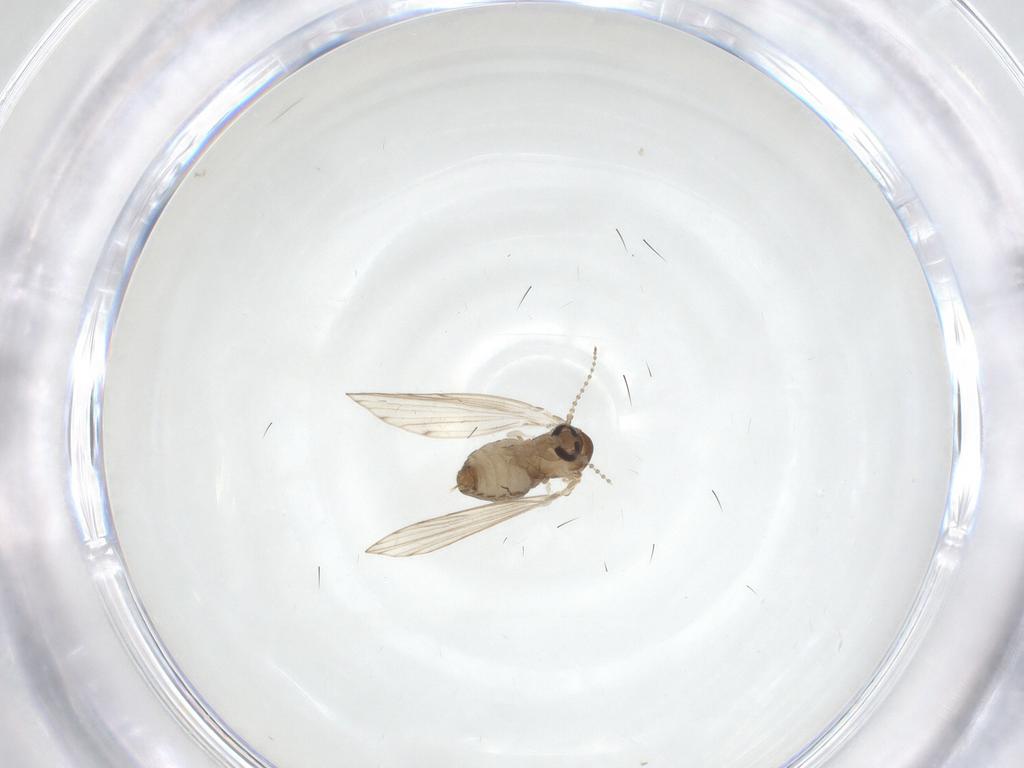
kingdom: Animalia
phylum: Arthropoda
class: Insecta
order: Diptera
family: Psychodidae
